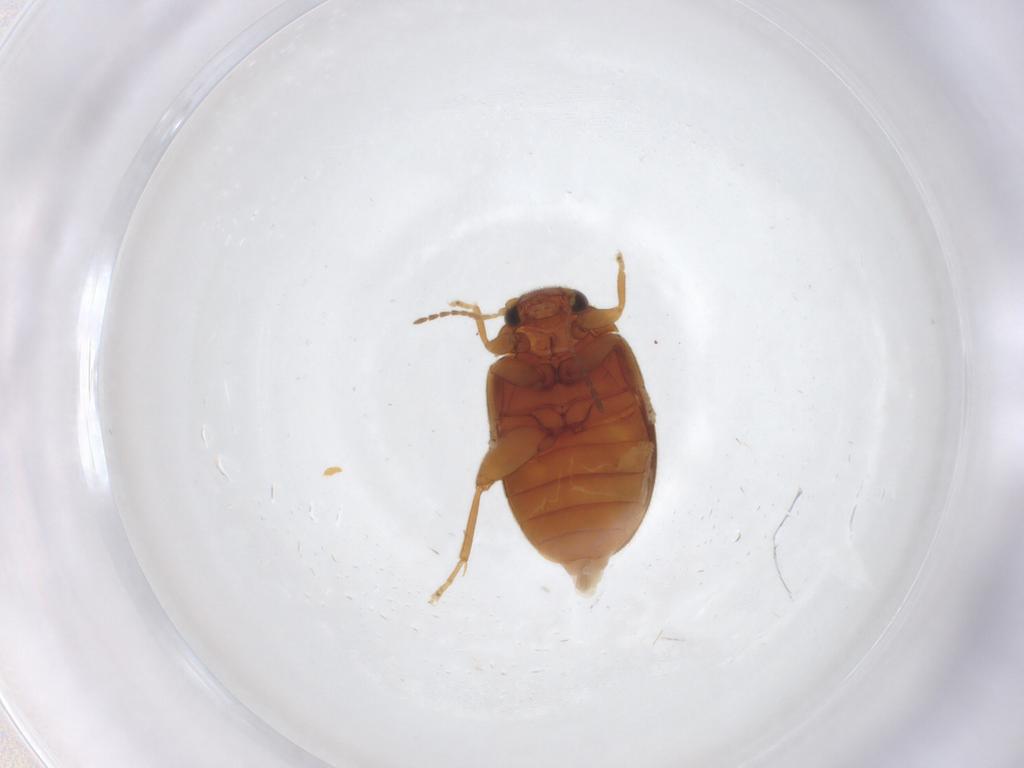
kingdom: Animalia
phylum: Arthropoda
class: Insecta
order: Coleoptera
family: Scirtidae
